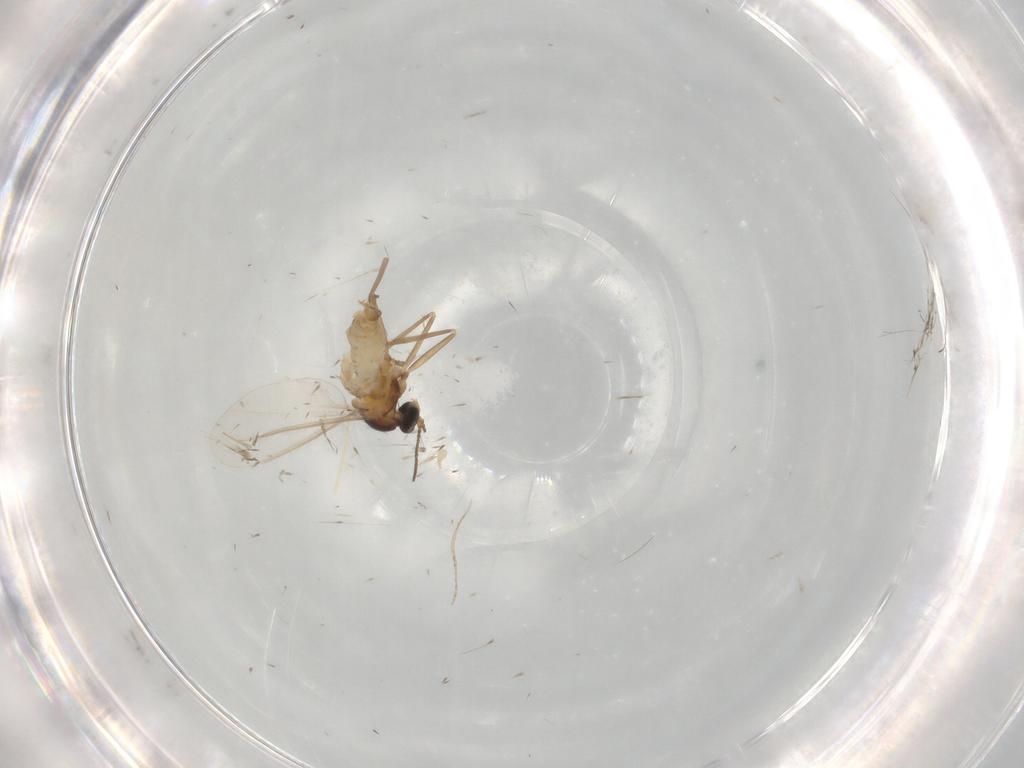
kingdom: Animalia
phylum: Arthropoda
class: Insecta
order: Diptera
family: Cecidomyiidae
